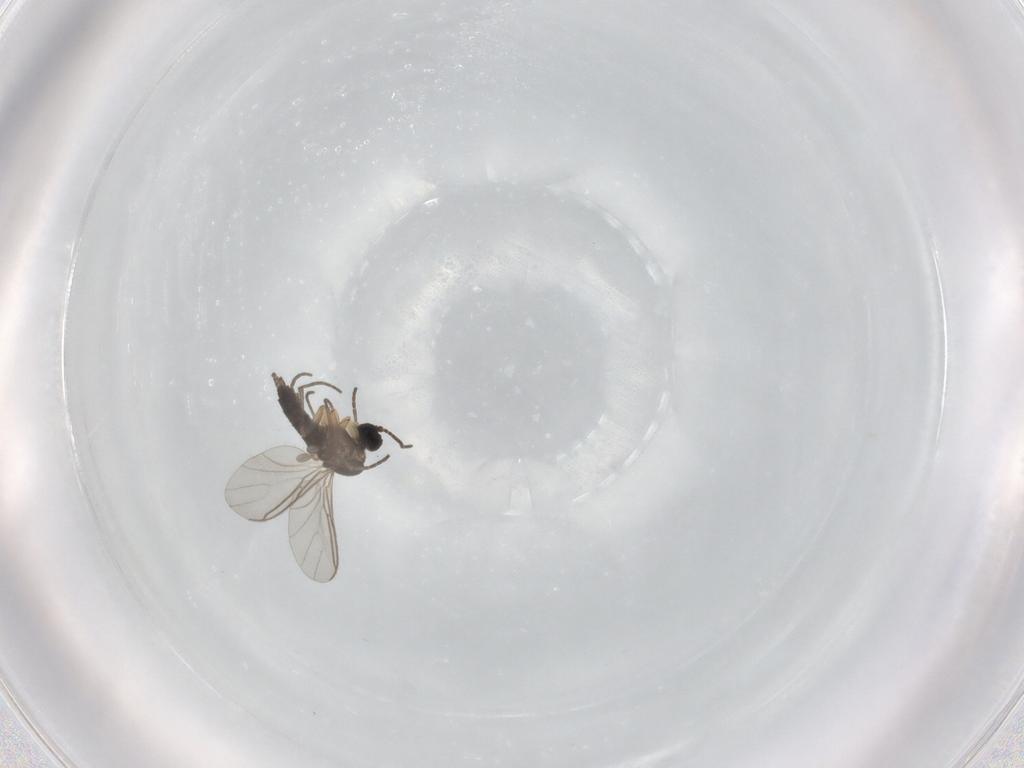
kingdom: Animalia
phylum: Arthropoda
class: Insecta
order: Diptera
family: Sciaridae
